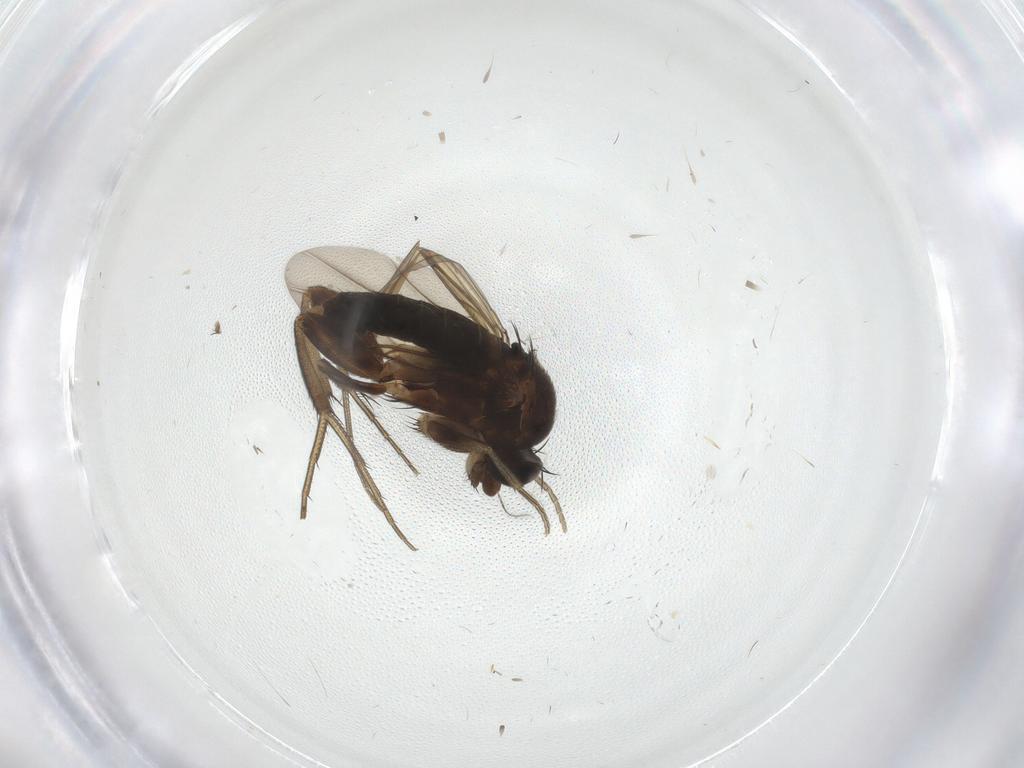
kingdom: Animalia
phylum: Arthropoda
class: Insecta
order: Diptera
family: Phoridae
